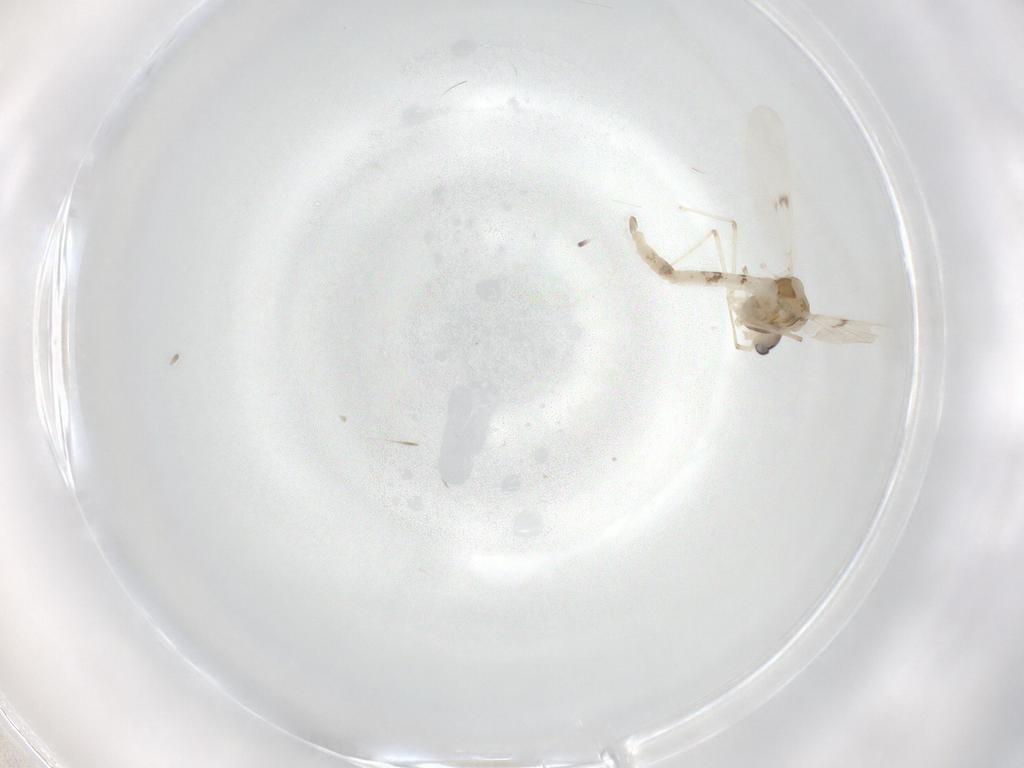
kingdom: Animalia
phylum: Arthropoda
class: Insecta
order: Diptera
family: Chironomidae
